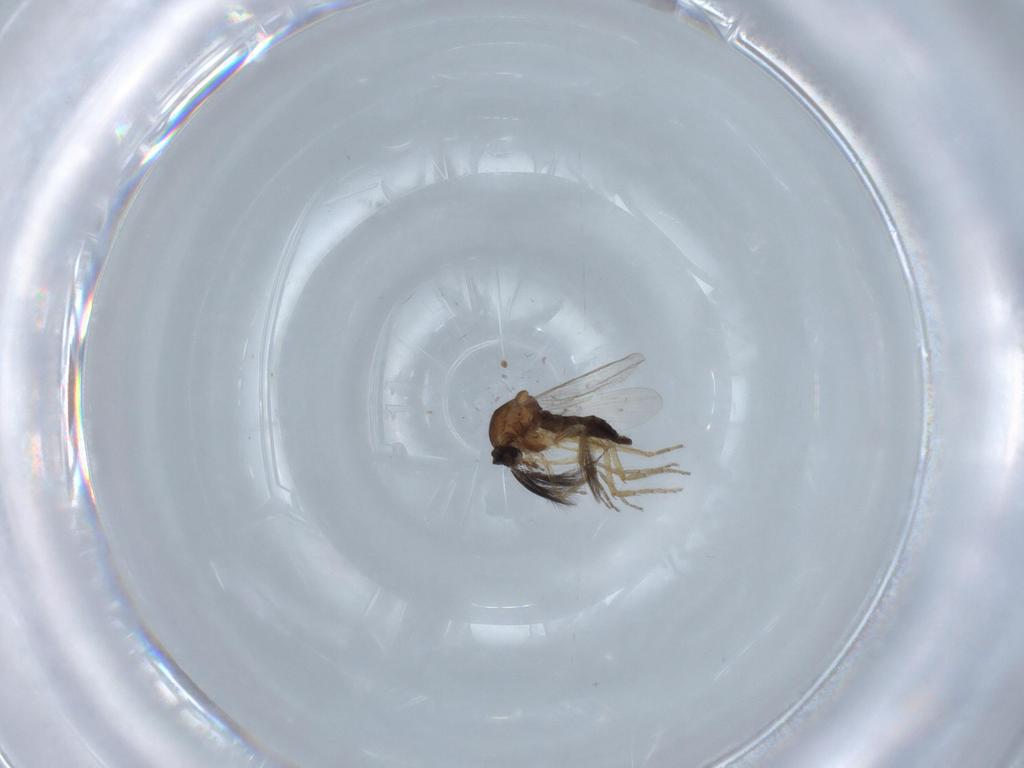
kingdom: Animalia
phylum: Arthropoda
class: Insecta
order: Diptera
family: Ceratopogonidae
